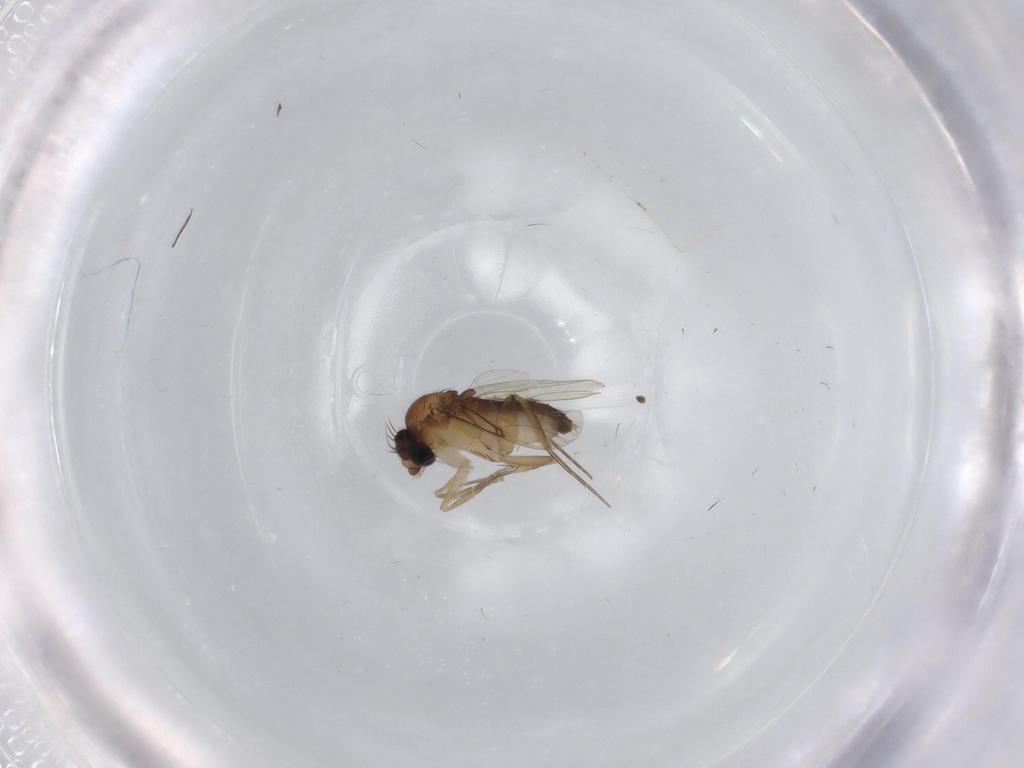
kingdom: Animalia
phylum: Arthropoda
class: Insecta
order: Diptera
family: Phoridae
